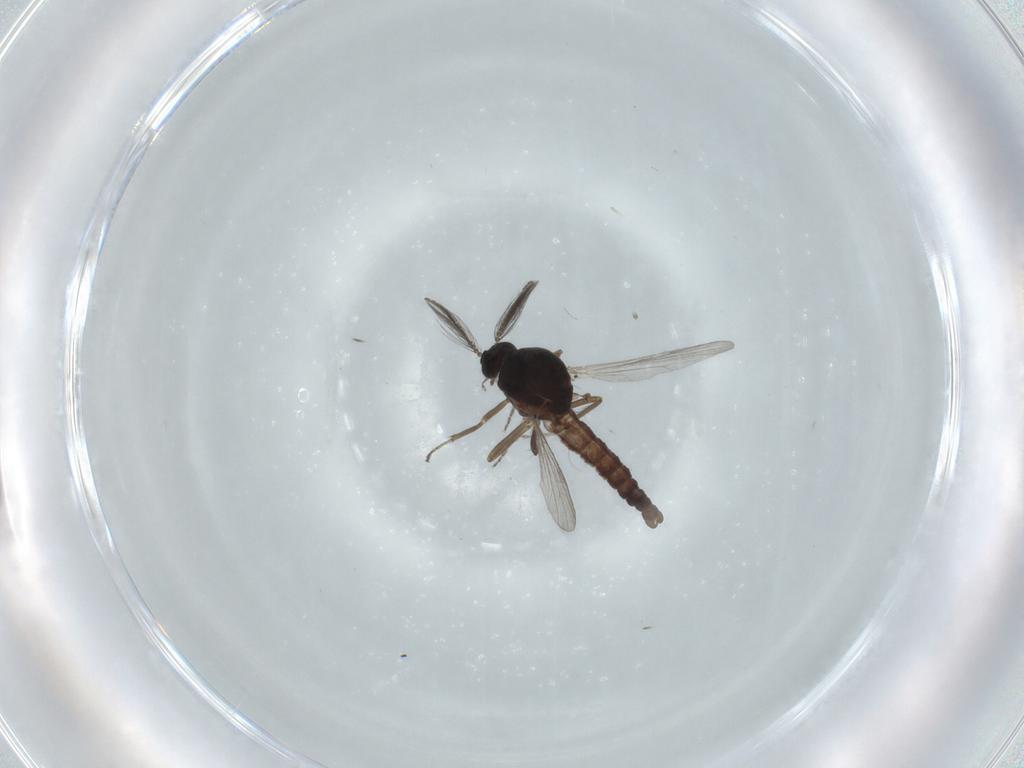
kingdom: Animalia
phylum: Arthropoda
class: Insecta
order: Diptera
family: Ceratopogonidae
